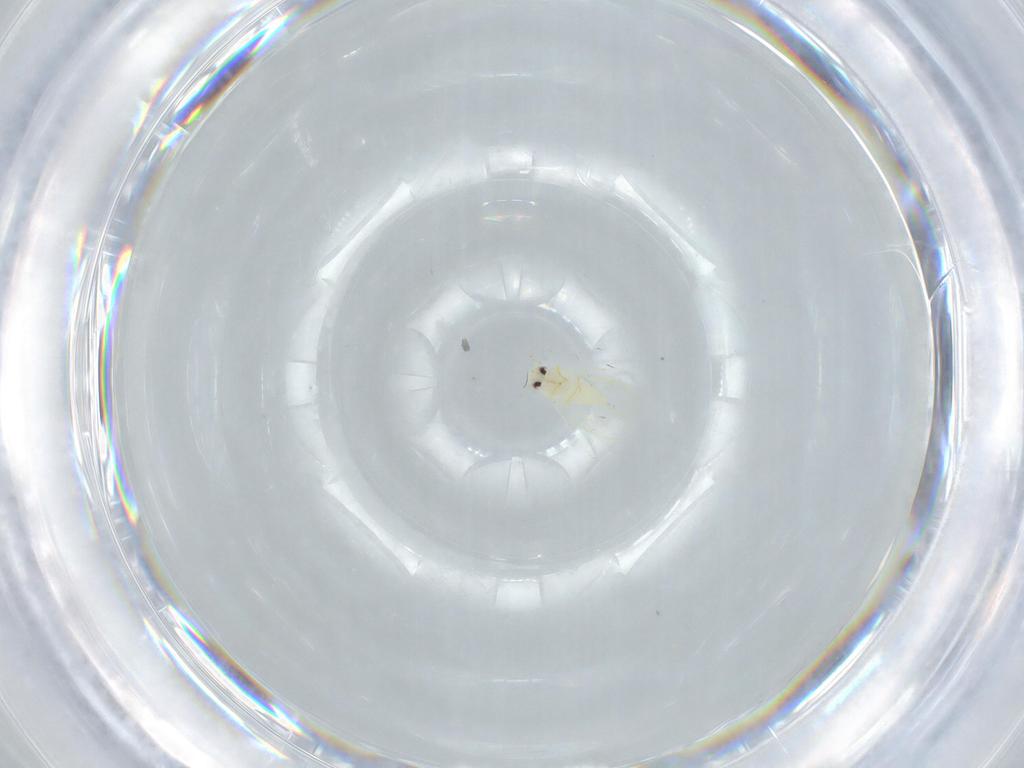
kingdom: Animalia
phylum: Arthropoda
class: Insecta
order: Hemiptera
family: Aleyrodidae
